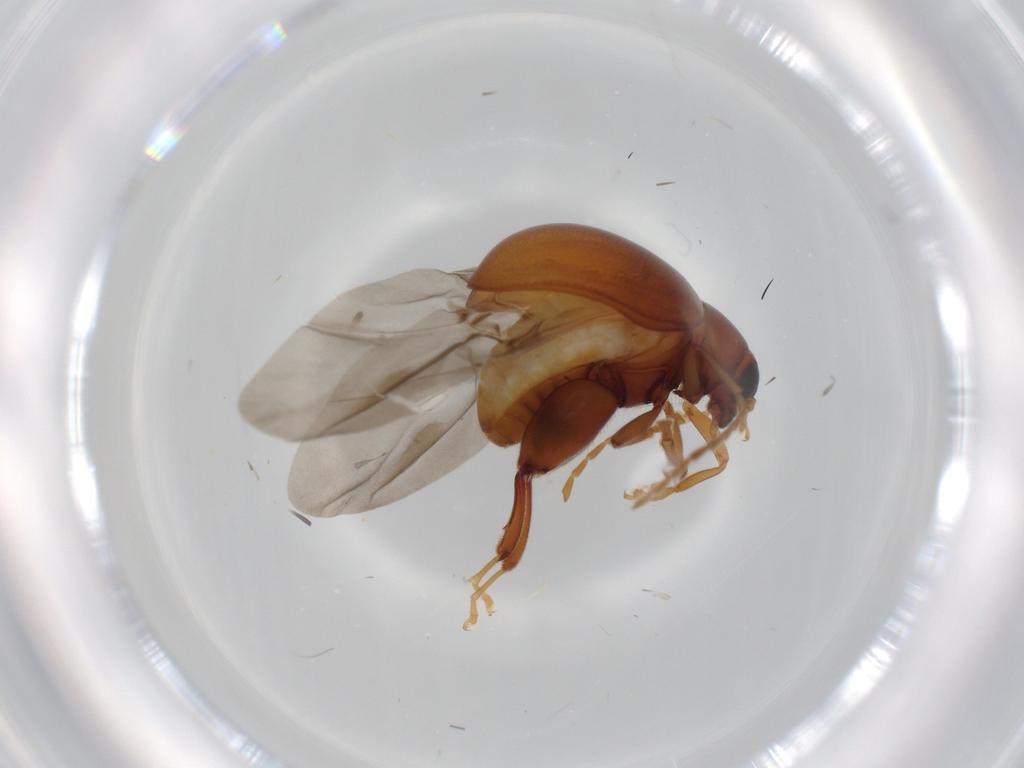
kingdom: Animalia
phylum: Arthropoda
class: Insecta
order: Coleoptera
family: Chrysomelidae
